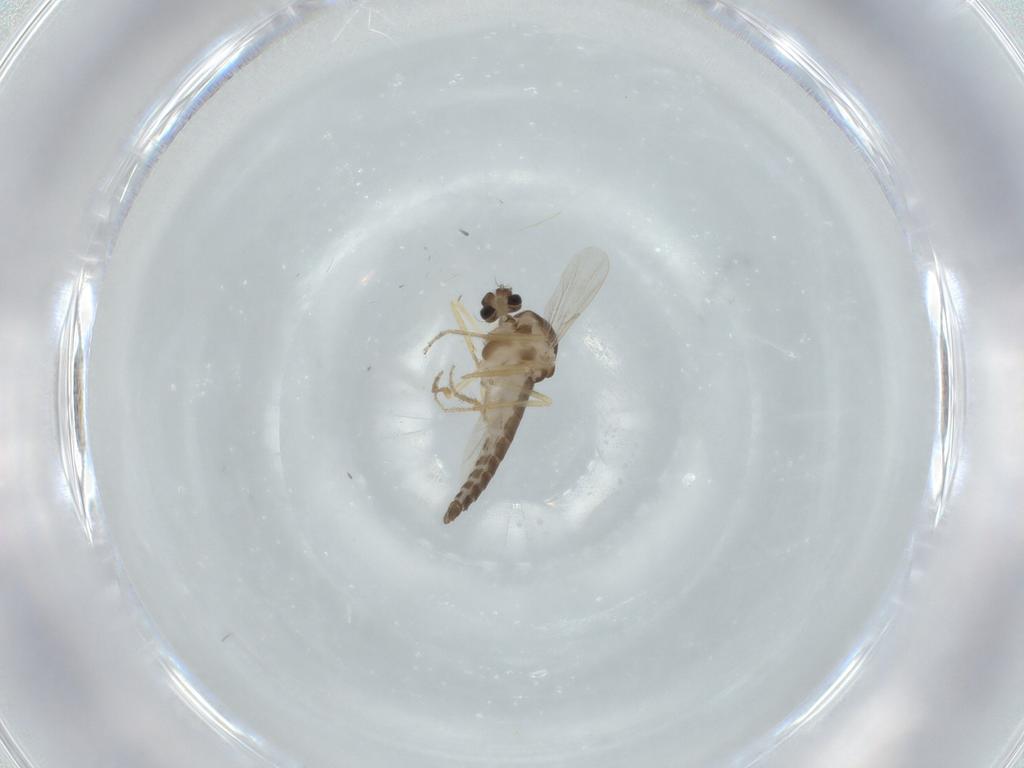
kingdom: Animalia
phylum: Arthropoda
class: Insecta
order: Diptera
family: Ceratopogonidae
